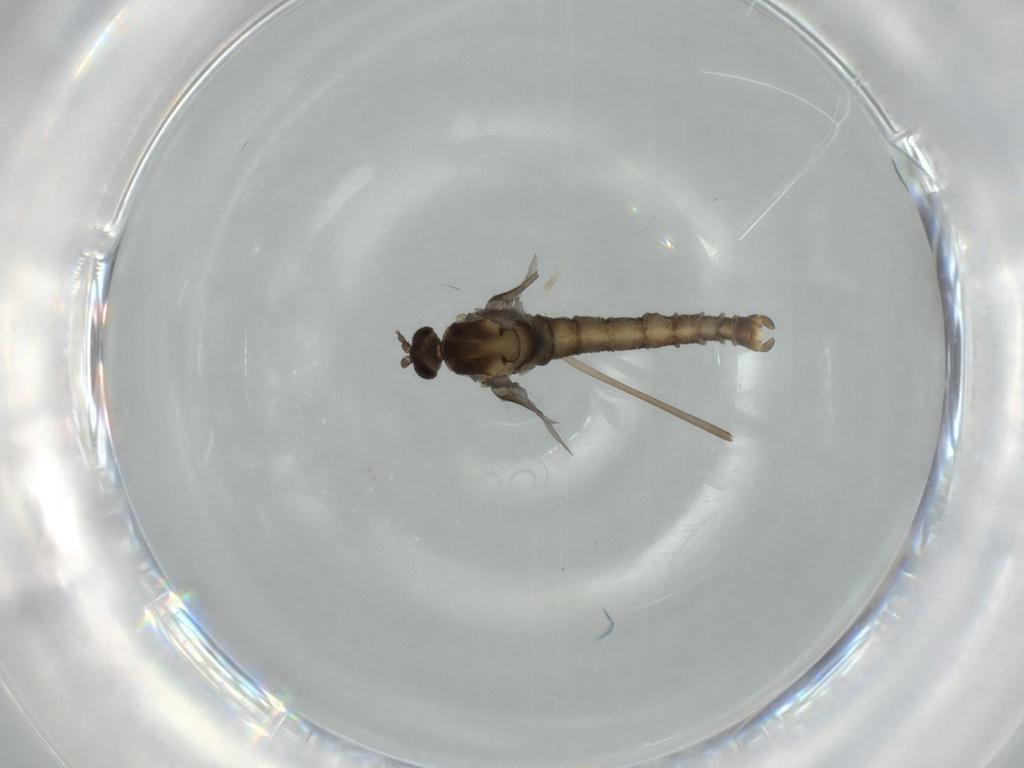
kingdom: Animalia
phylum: Arthropoda
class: Insecta
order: Diptera
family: Cecidomyiidae
